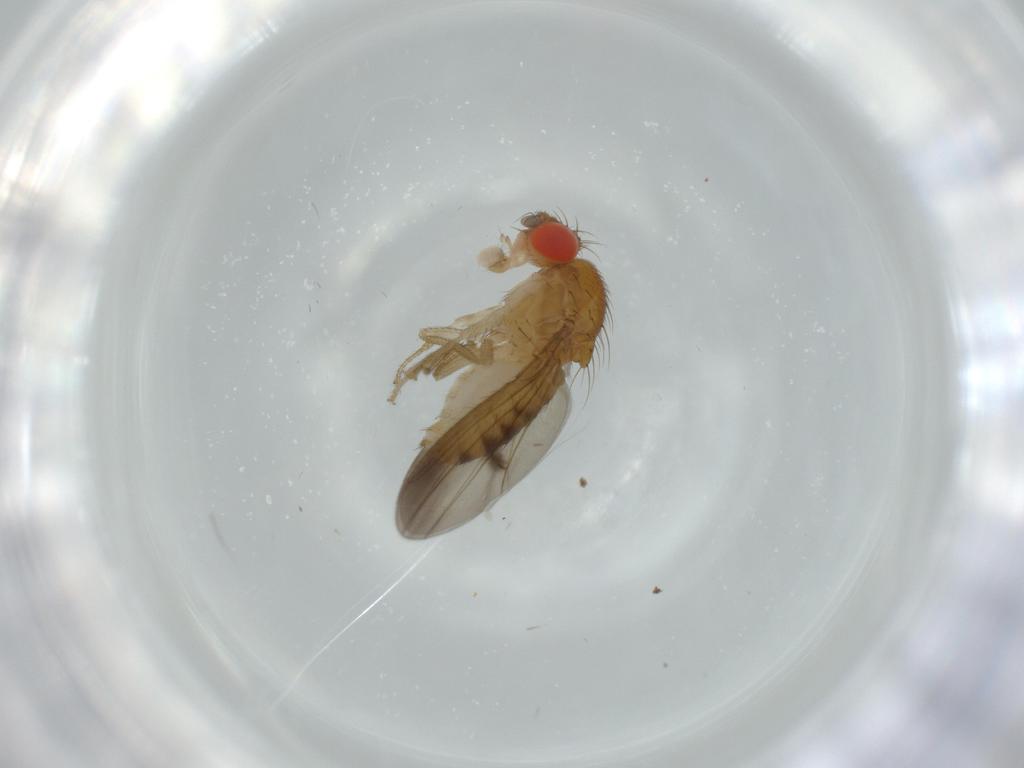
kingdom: Animalia
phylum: Arthropoda
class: Insecta
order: Diptera
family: Drosophilidae
